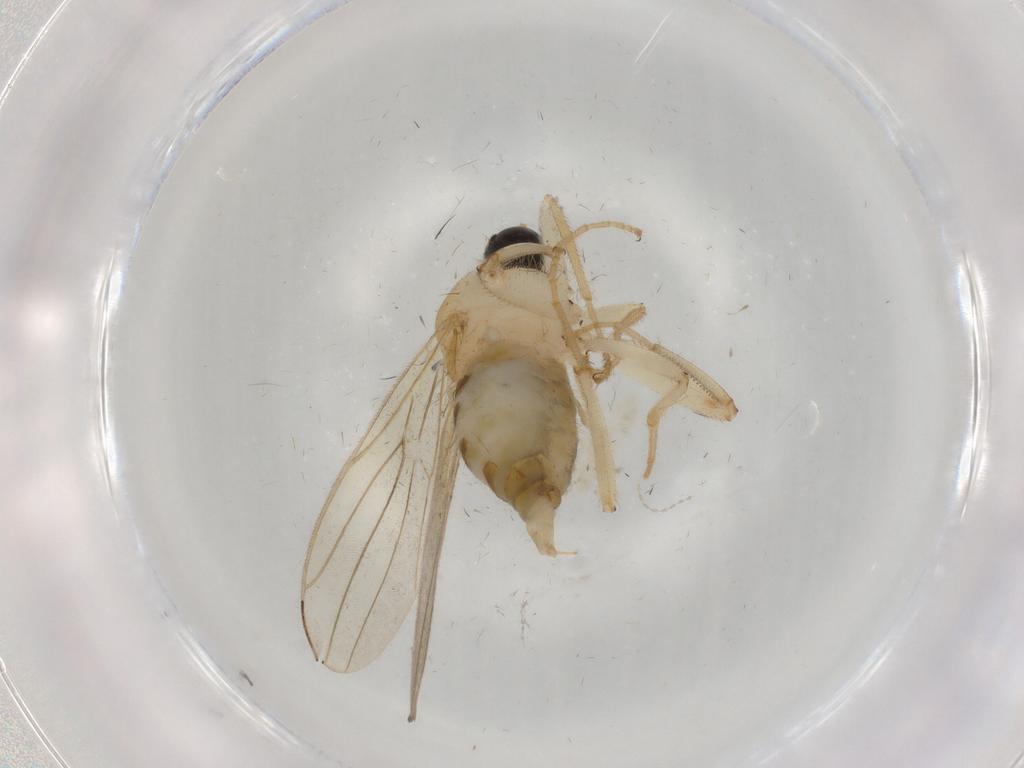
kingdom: Animalia
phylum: Arthropoda
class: Insecta
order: Diptera
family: Hybotidae
